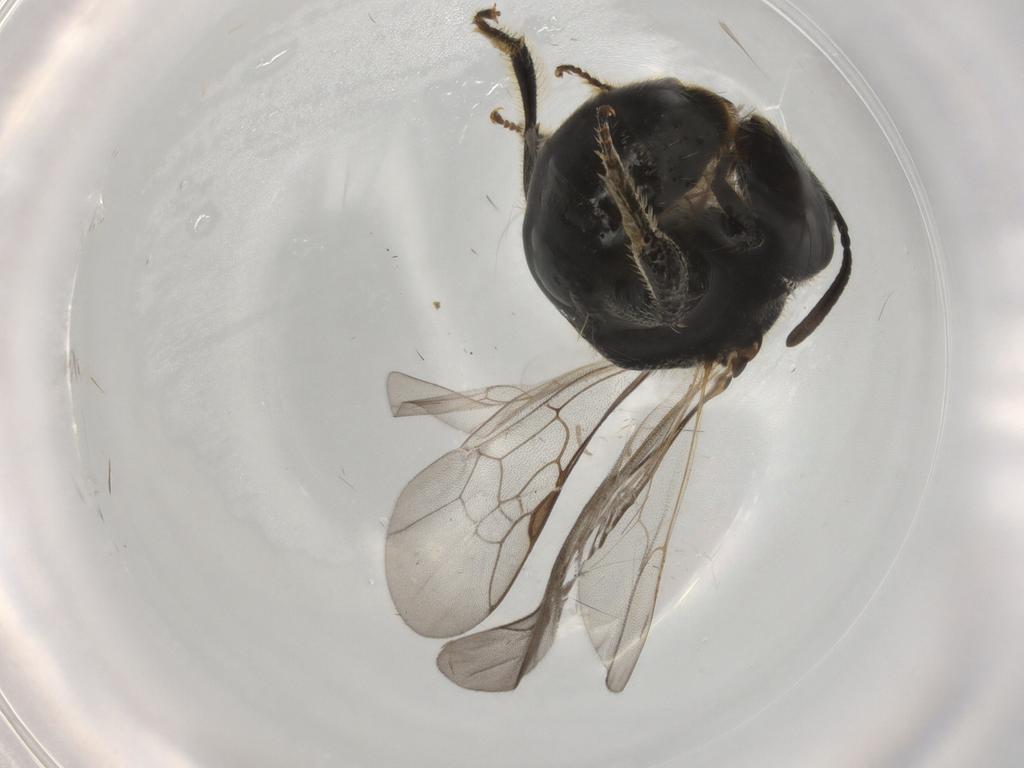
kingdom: Animalia
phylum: Arthropoda
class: Insecta
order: Hymenoptera
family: Halictidae
